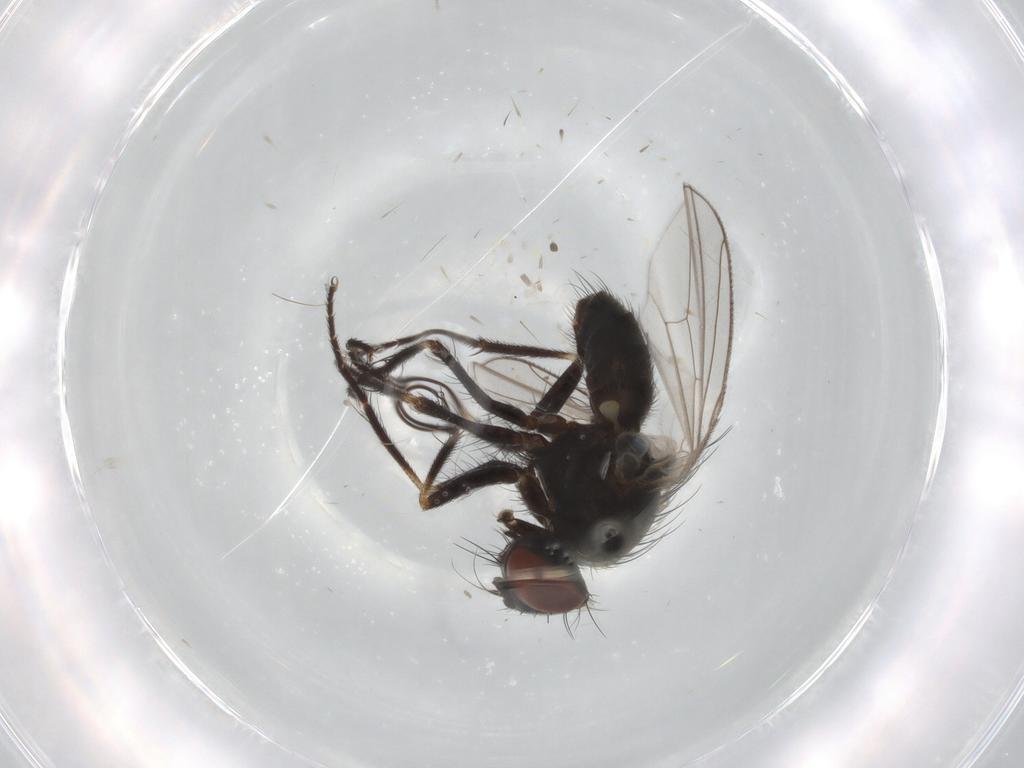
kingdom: Animalia
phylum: Arthropoda
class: Insecta
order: Diptera
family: Muscidae
